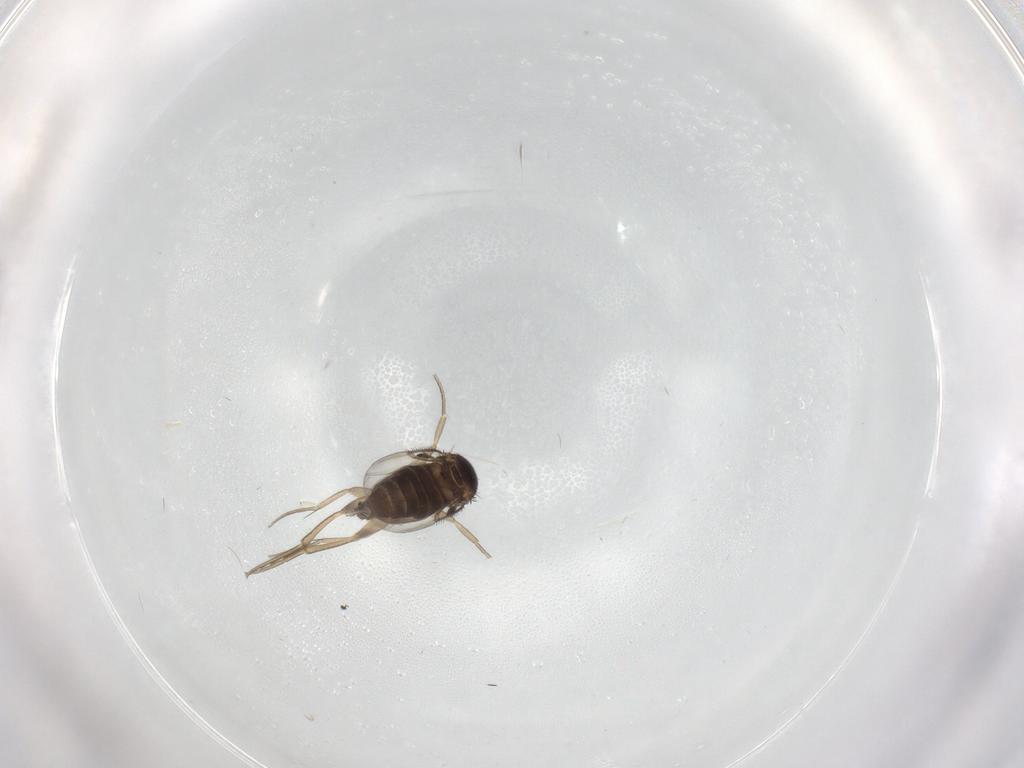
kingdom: Animalia
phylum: Arthropoda
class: Insecta
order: Diptera
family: Phoridae
